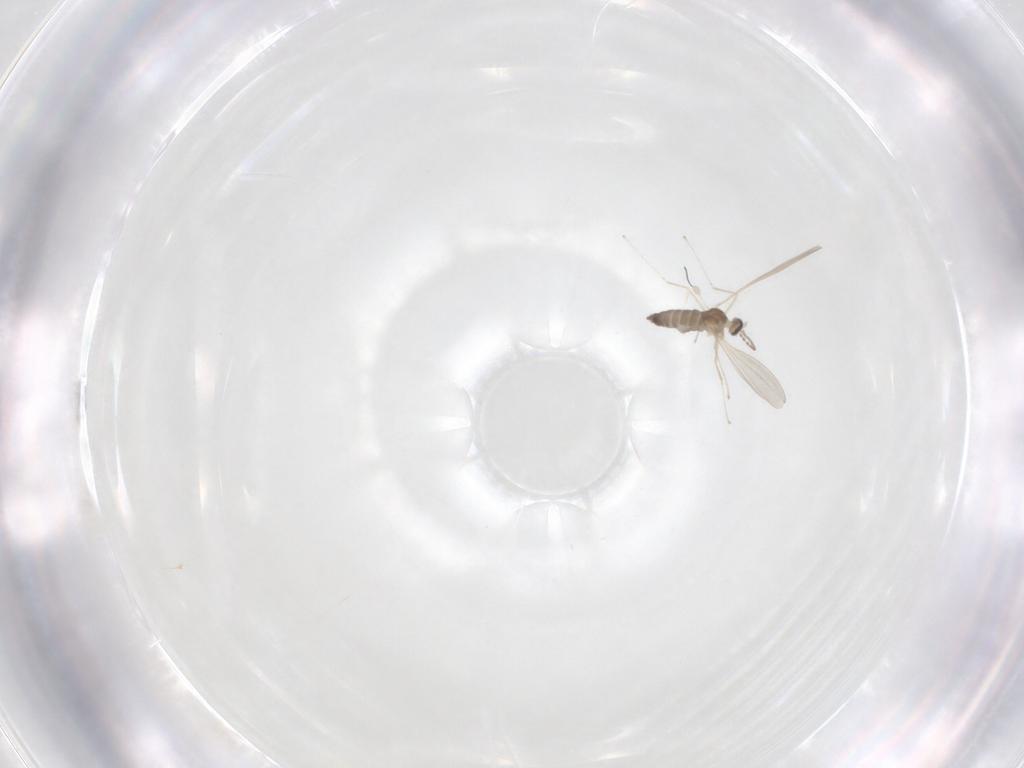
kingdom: Animalia
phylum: Arthropoda
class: Insecta
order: Diptera
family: Cecidomyiidae
